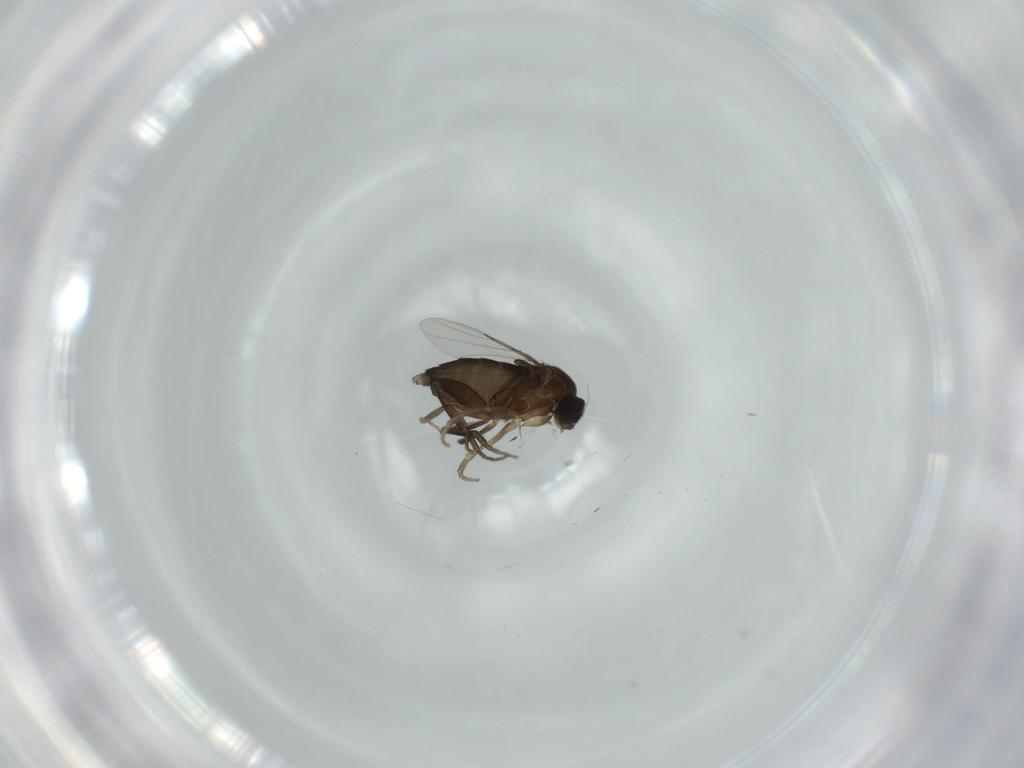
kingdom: Animalia
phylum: Arthropoda
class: Insecta
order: Diptera
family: Phoridae
